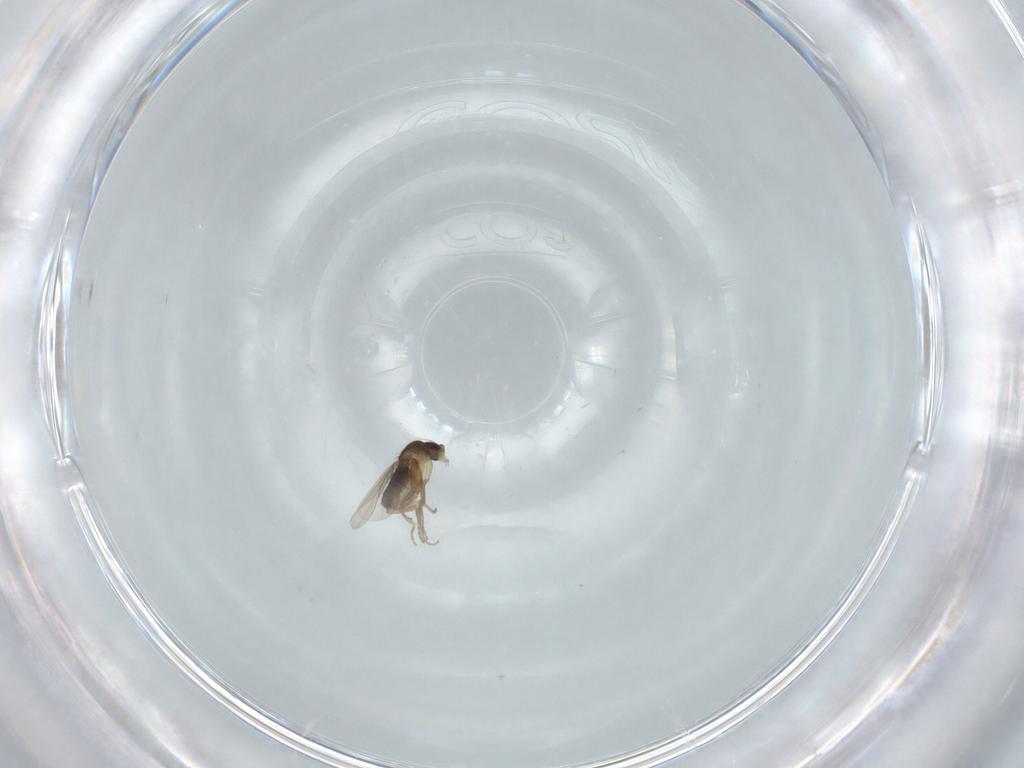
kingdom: Animalia
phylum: Arthropoda
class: Insecta
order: Diptera
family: Phoridae
